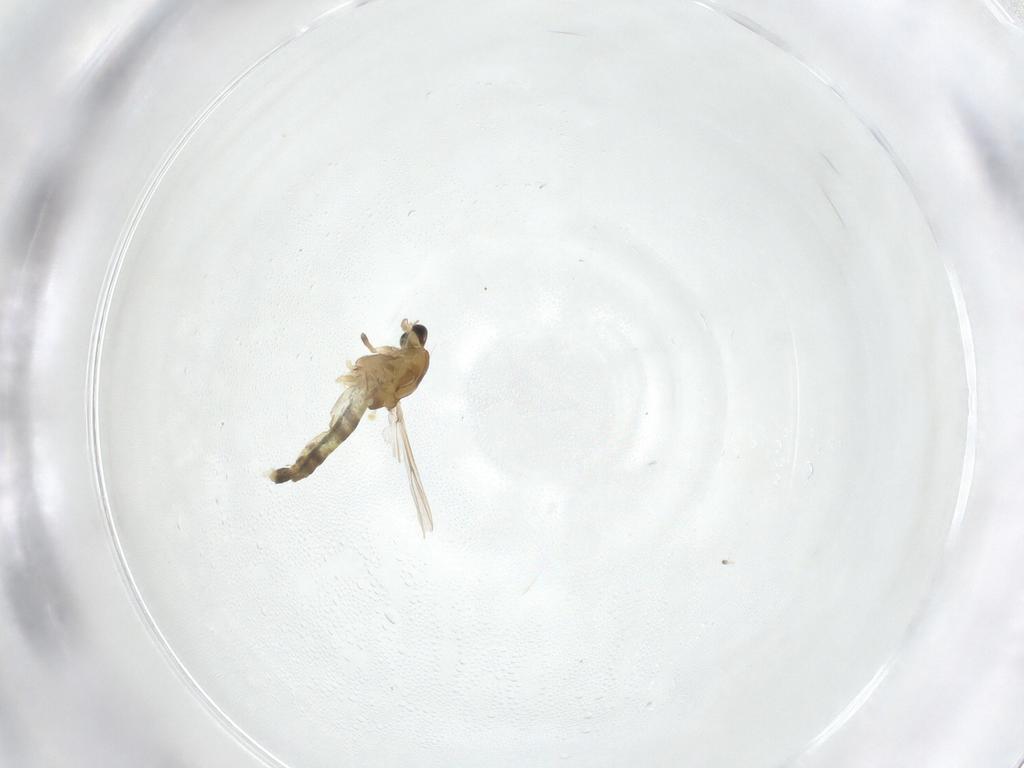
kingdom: Animalia
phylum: Arthropoda
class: Insecta
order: Diptera
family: Chironomidae
